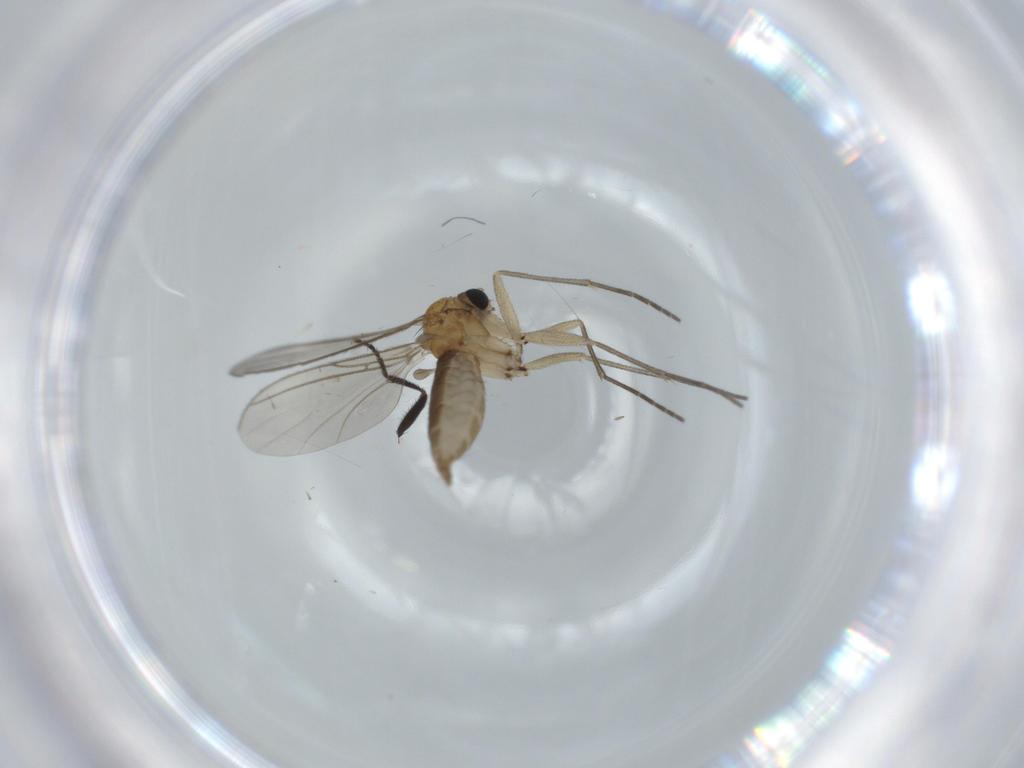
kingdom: Animalia
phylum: Arthropoda
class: Insecta
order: Diptera
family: Sciaridae
